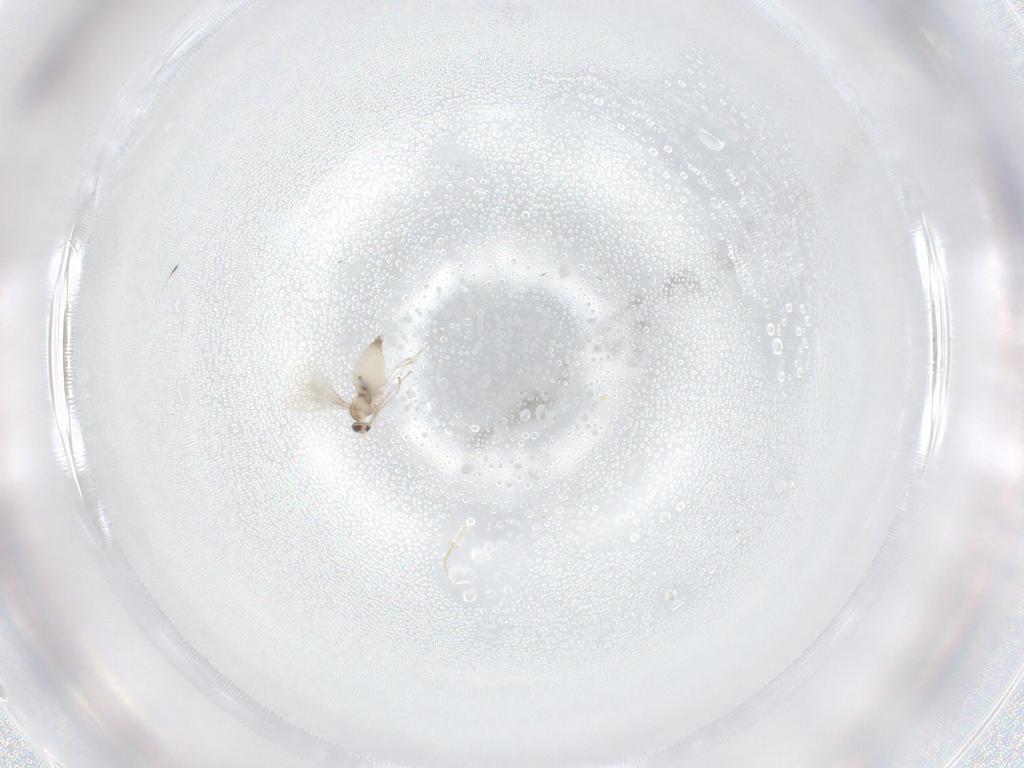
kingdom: Animalia
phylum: Arthropoda
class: Insecta
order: Diptera
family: Cecidomyiidae
